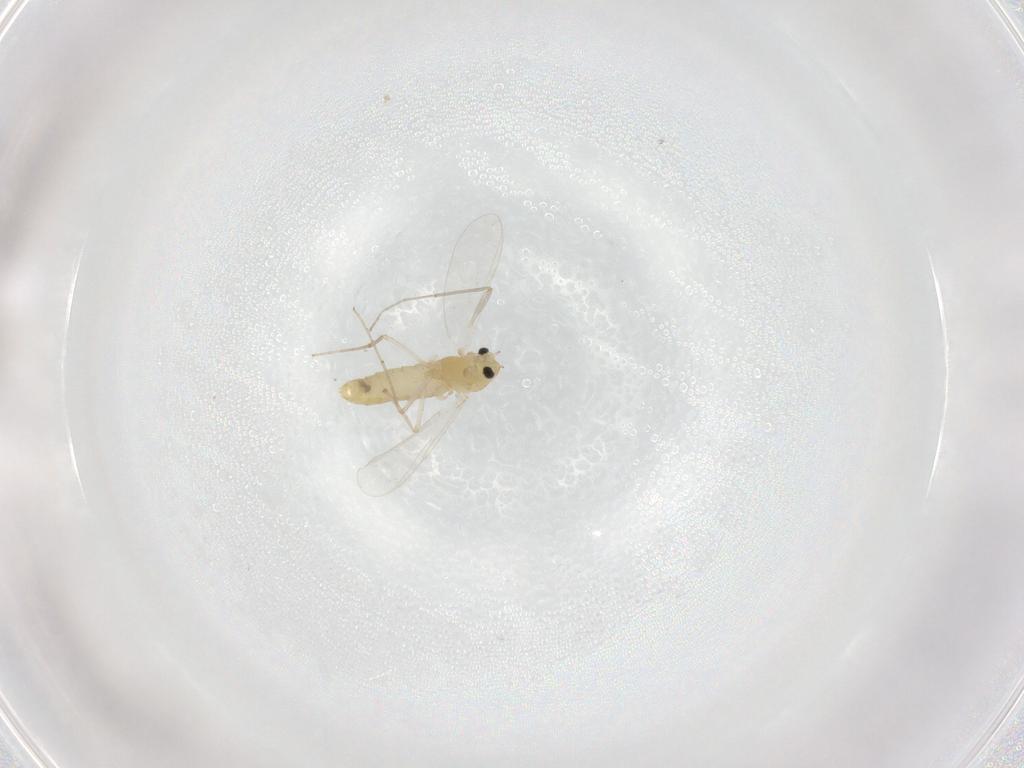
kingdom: Animalia
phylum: Arthropoda
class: Insecta
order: Diptera
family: Chironomidae
